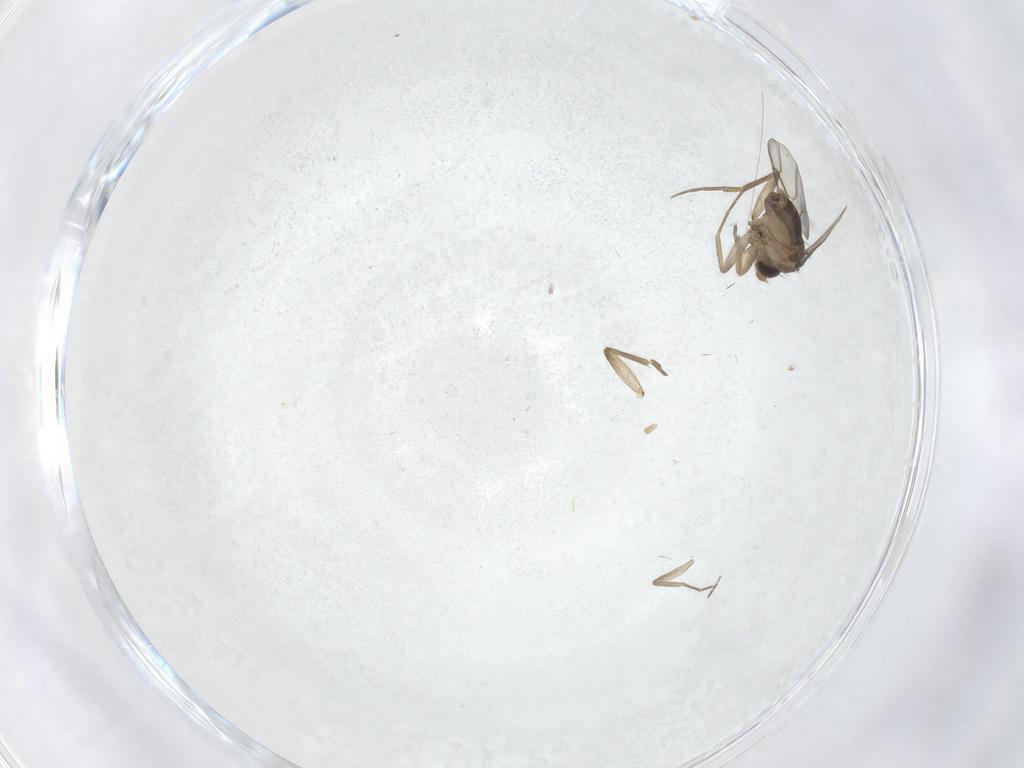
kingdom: Animalia
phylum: Arthropoda
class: Insecta
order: Diptera
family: Phoridae
